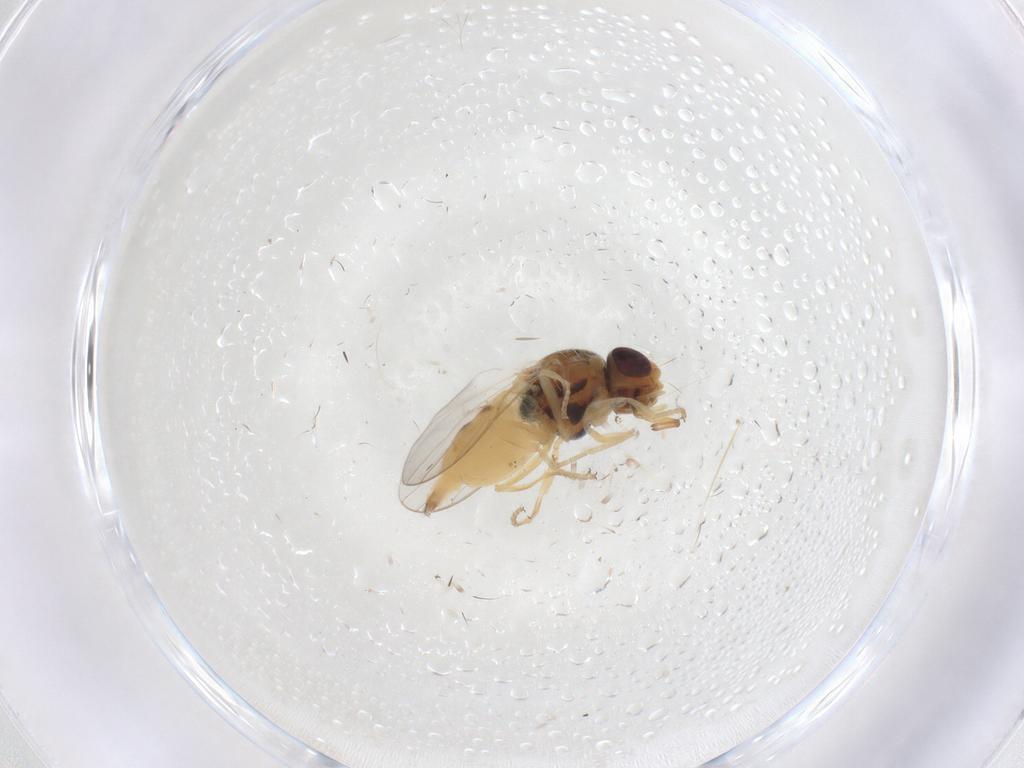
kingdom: Animalia
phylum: Arthropoda
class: Insecta
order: Diptera
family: Chloropidae
